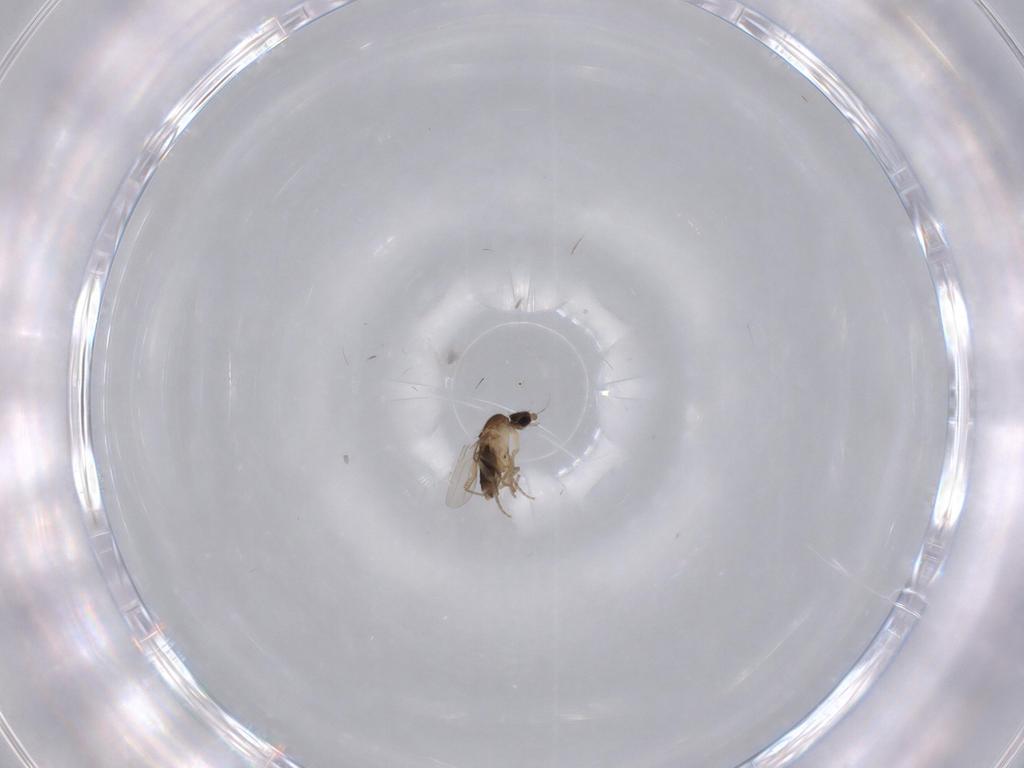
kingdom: Animalia
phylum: Arthropoda
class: Insecta
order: Diptera
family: Phoridae
